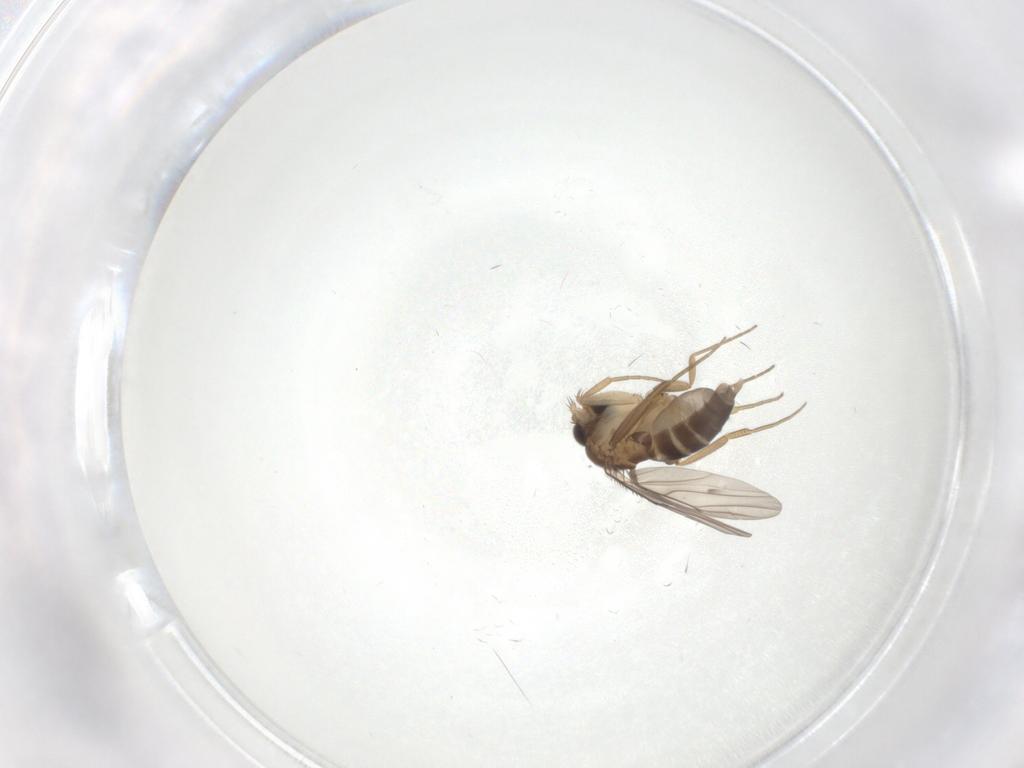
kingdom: Animalia
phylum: Arthropoda
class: Insecta
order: Diptera
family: Phoridae
